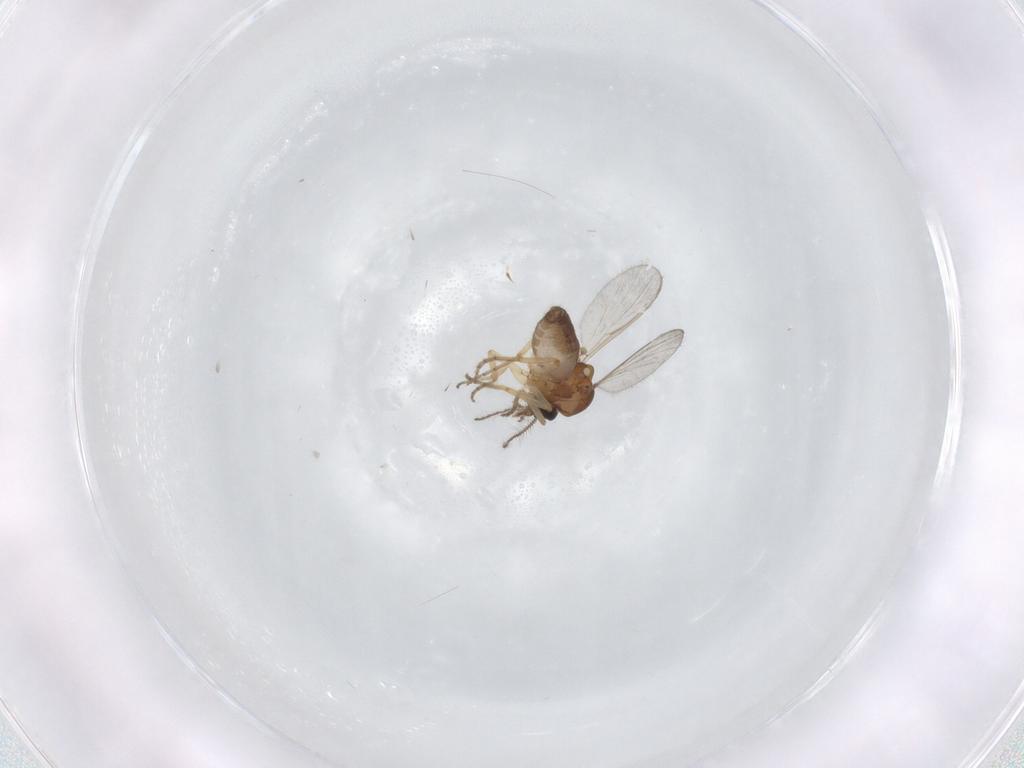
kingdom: Animalia
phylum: Arthropoda
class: Insecta
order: Diptera
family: Ceratopogonidae
